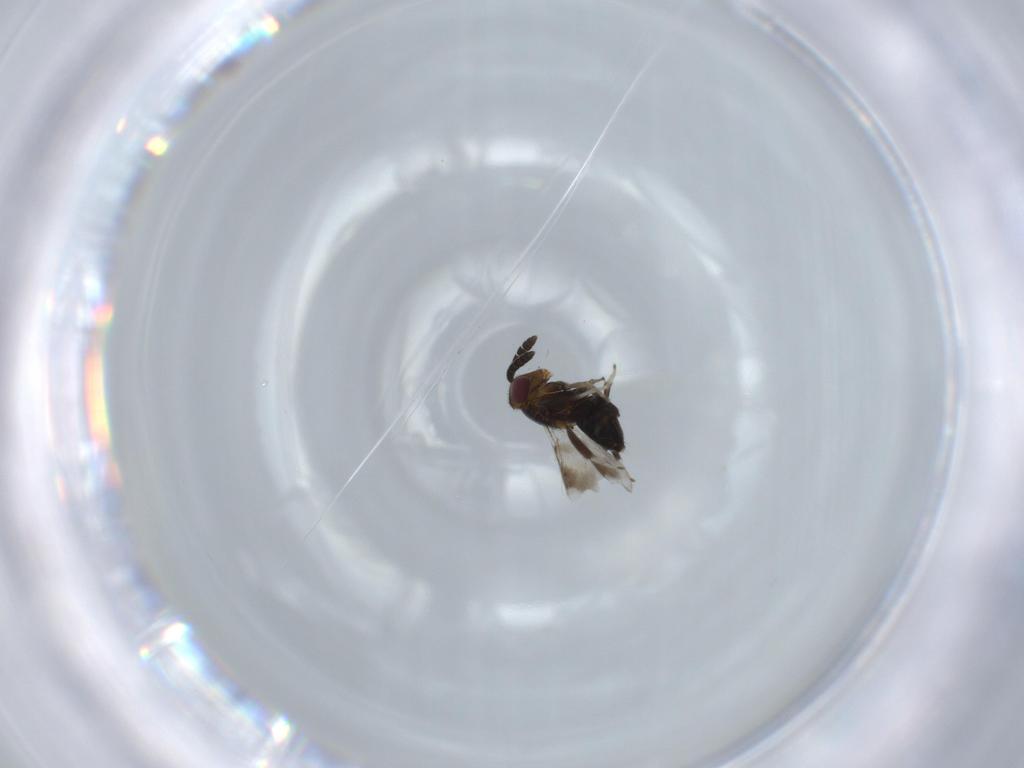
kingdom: Animalia
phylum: Arthropoda
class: Insecta
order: Hymenoptera
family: Aphelinidae
